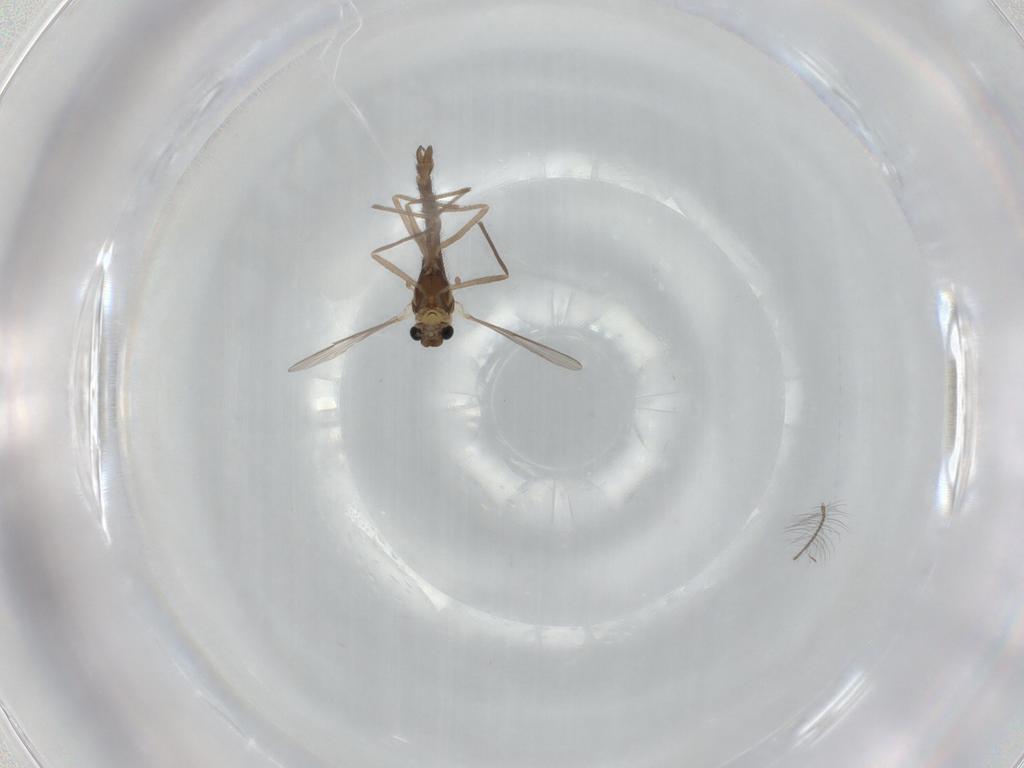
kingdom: Animalia
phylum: Arthropoda
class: Insecta
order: Diptera
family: Chironomidae
